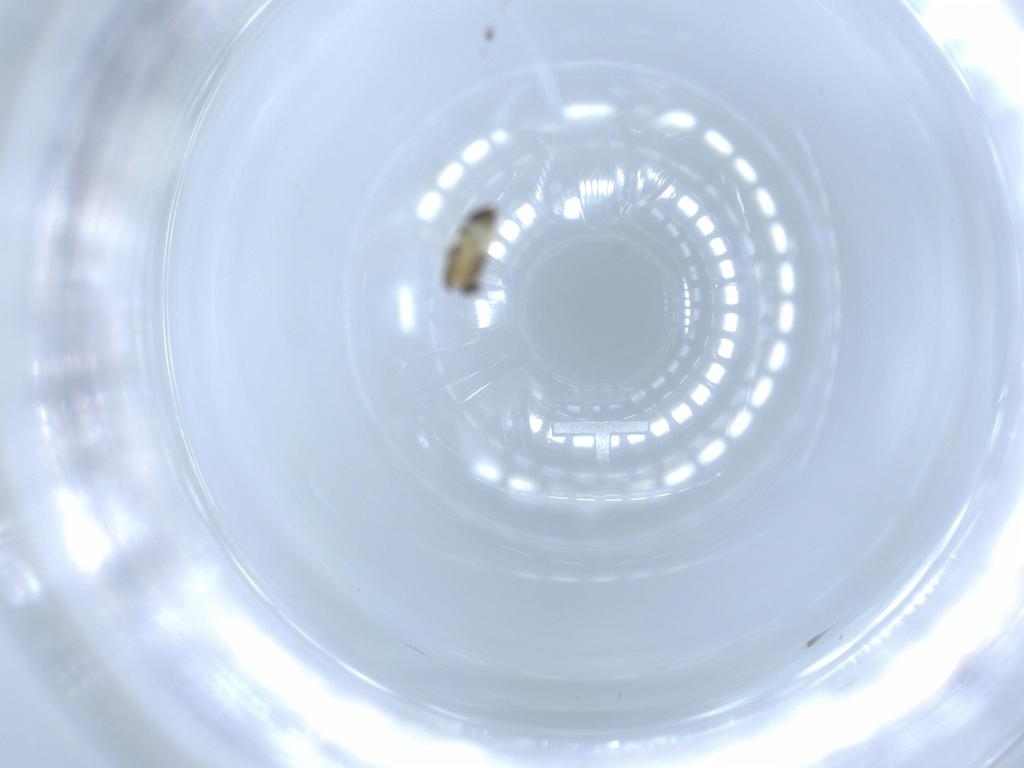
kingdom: Animalia
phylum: Arthropoda
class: Insecta
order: Diptera
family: Chironomidae
